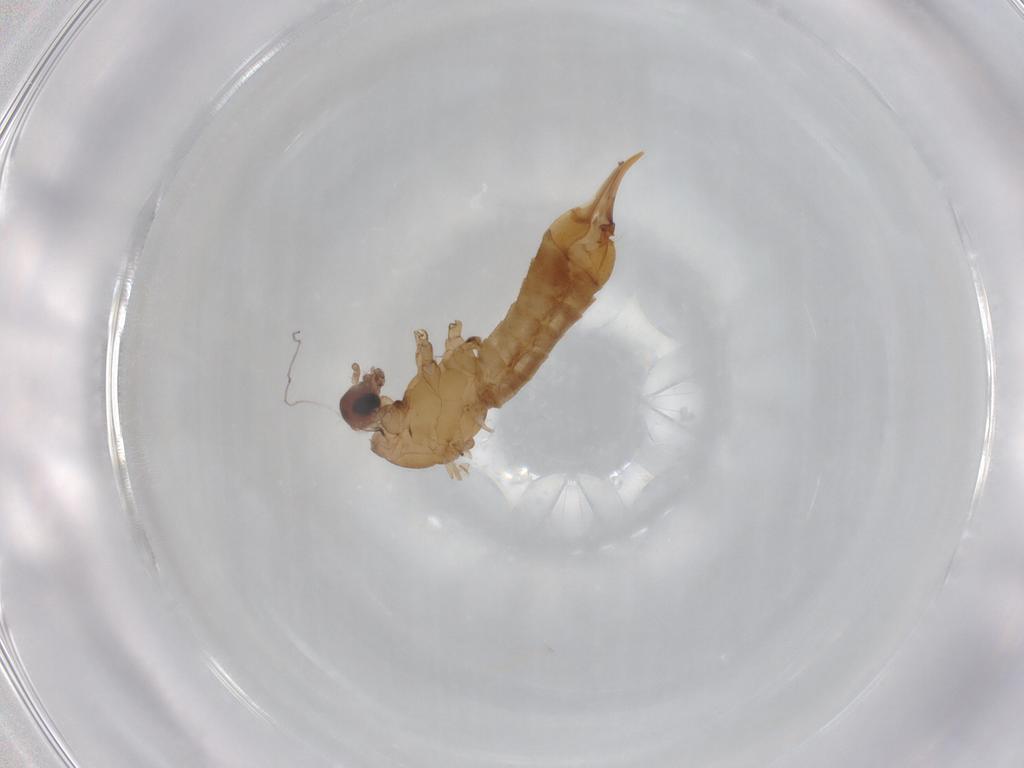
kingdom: Animalia
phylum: Arthropoda
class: Insecta
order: Diptera
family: Limoniidae
